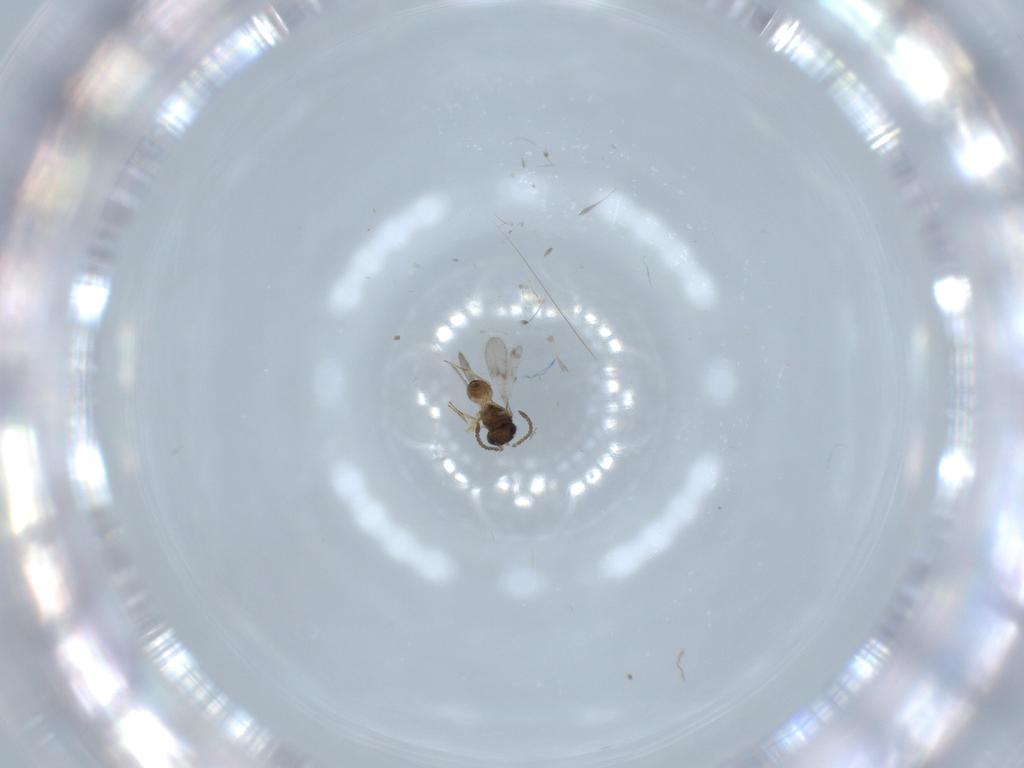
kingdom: Animalia
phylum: Arthropoda
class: Arachnida
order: Araneae
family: Pholcidae
